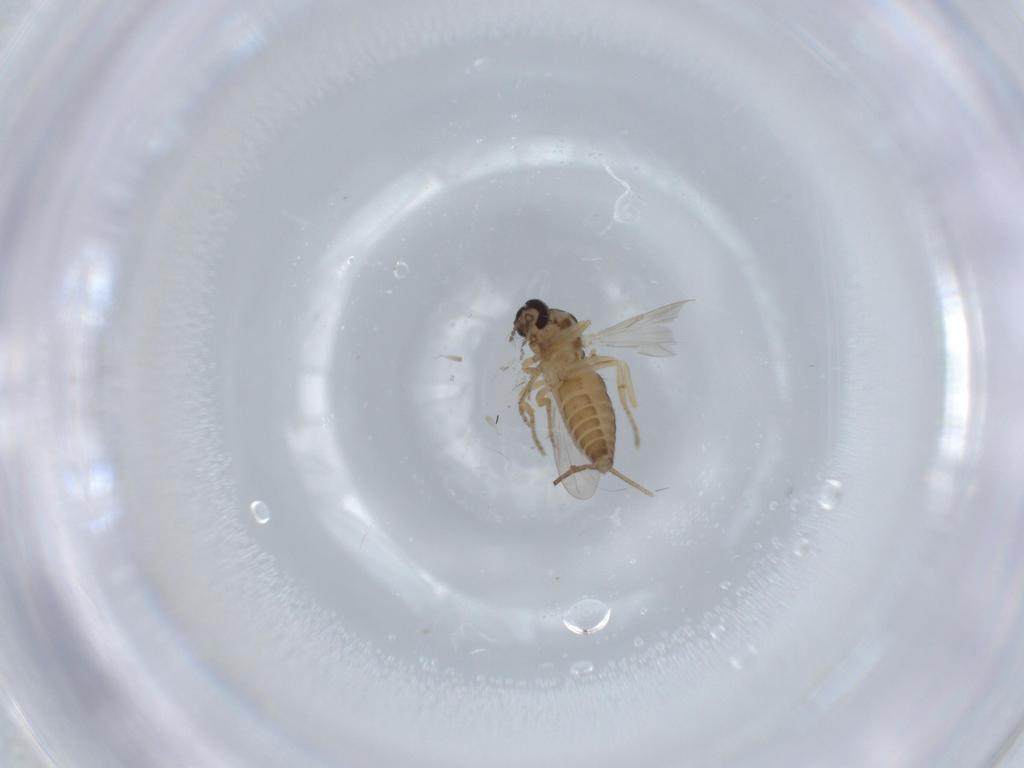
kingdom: Animalia
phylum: Arthropoda
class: Insecta
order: Diptera
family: Ceratopogonidae
